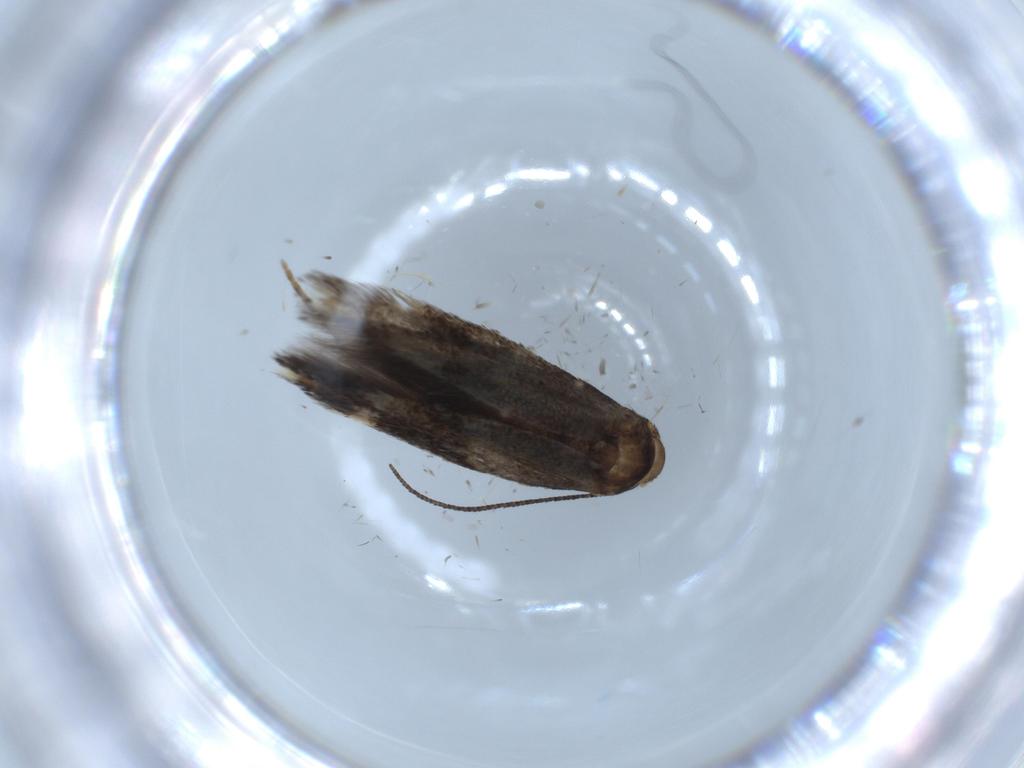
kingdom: Animalia
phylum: Arthropoda
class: Insecta
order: Lepidoptera
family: Elachistidae
